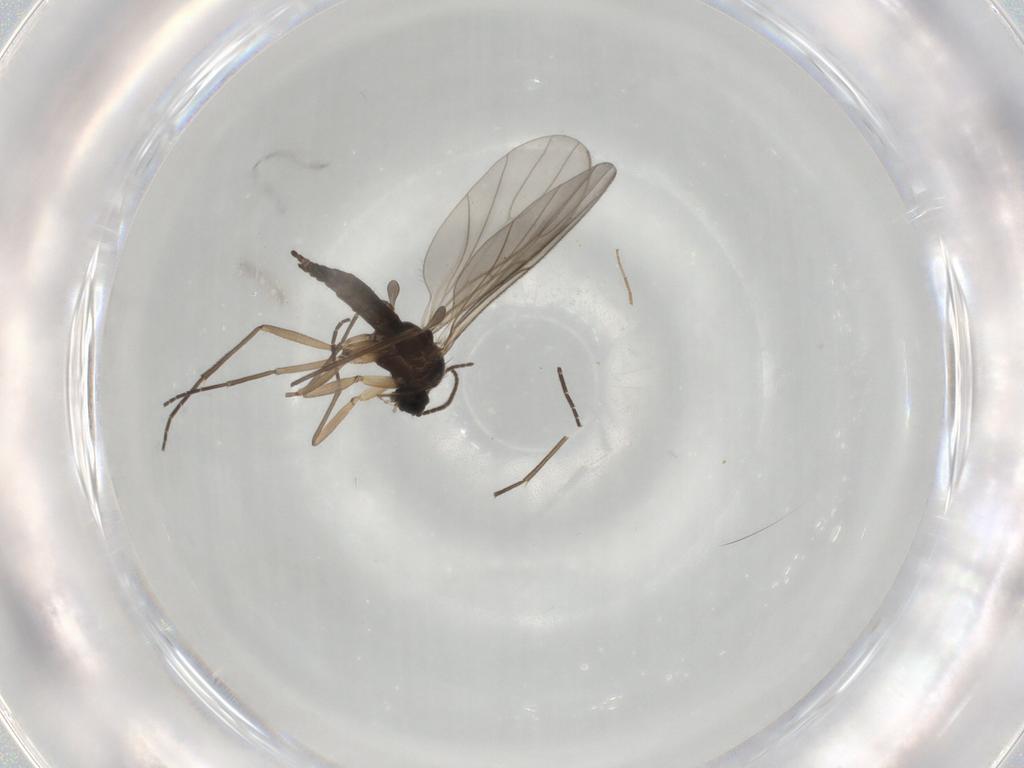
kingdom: Animalia
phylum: Arthropoda
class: Insecta
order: Diptera
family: Sciaridae
